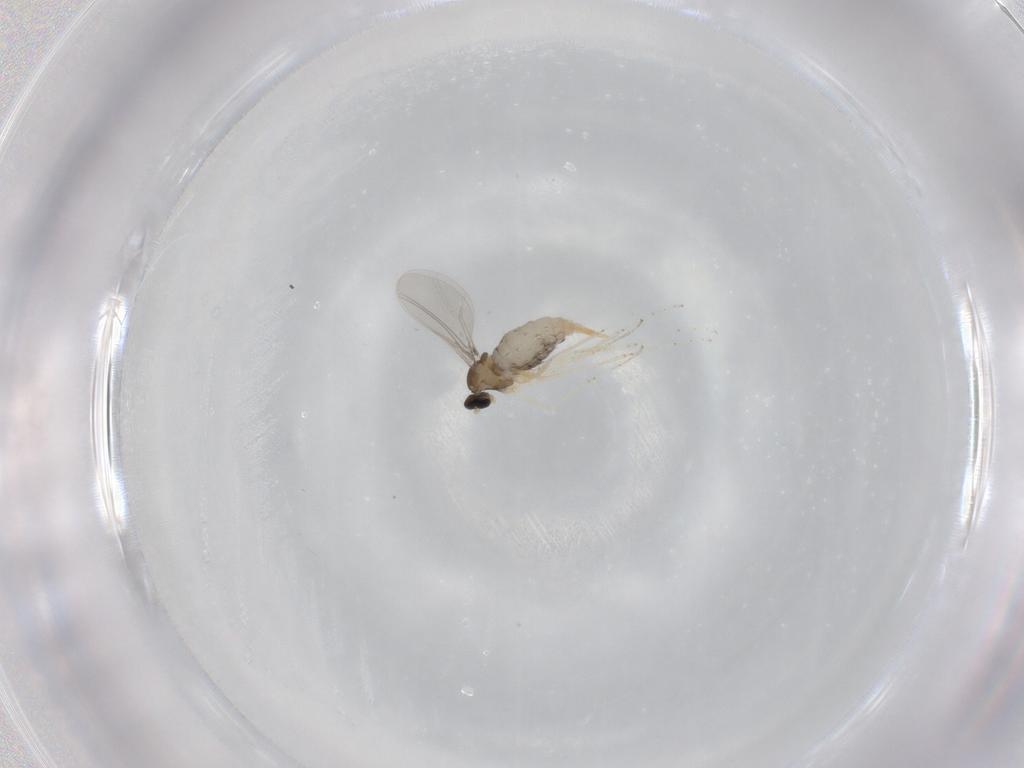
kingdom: Animalia
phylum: Arthropoda
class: Insecta
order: Diptera
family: Cecidomyiidae
